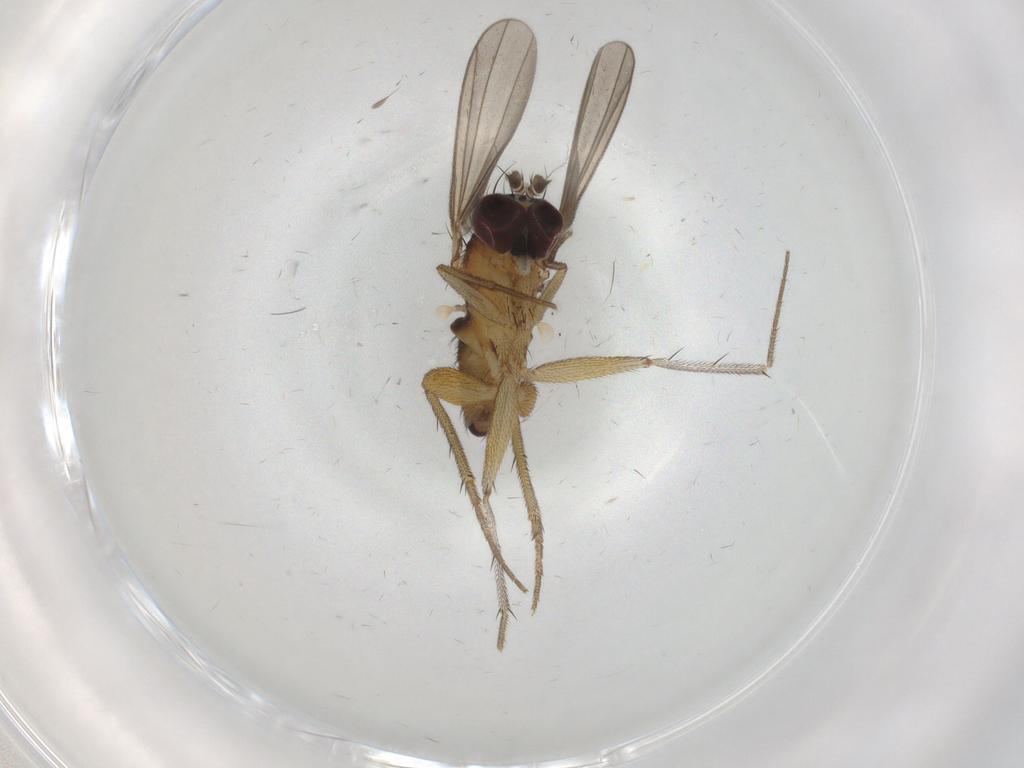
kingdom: Animalia
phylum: Arthropoda
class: Insecta
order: Diptera
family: Dolichopodidae
